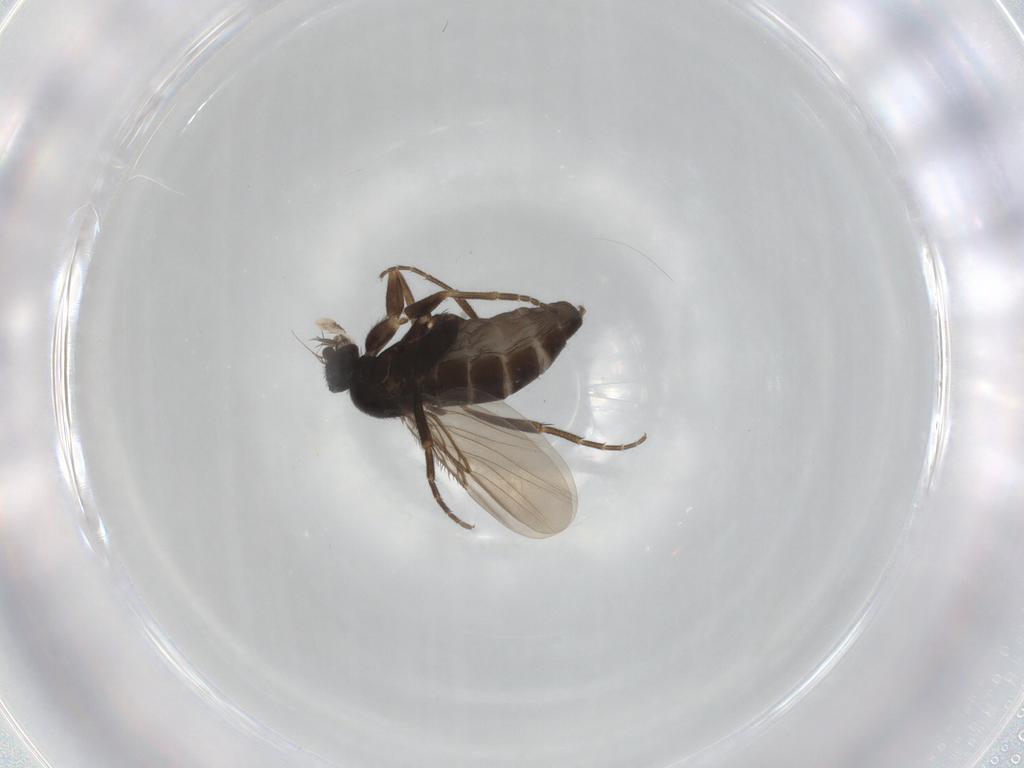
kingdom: Animalia
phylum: Arthropoda
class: Insecta
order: Diptera
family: Phoridae
